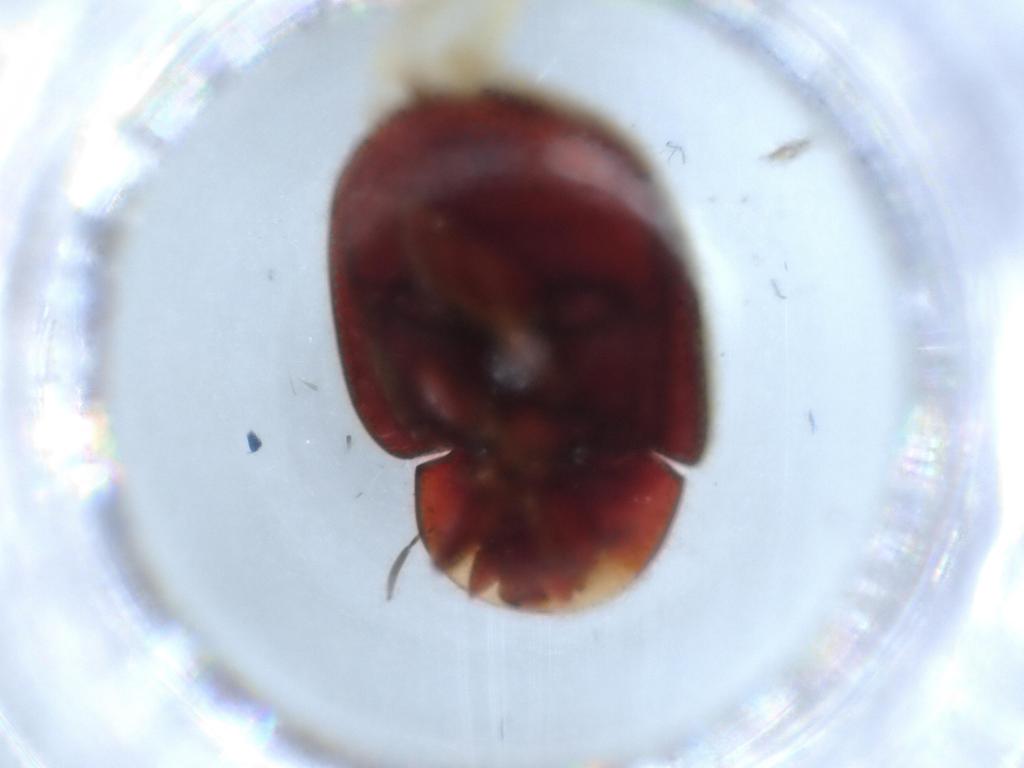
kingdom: Animalia
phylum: Arthropoda
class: Insecta
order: Coleoptera
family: Chrysomelidae
